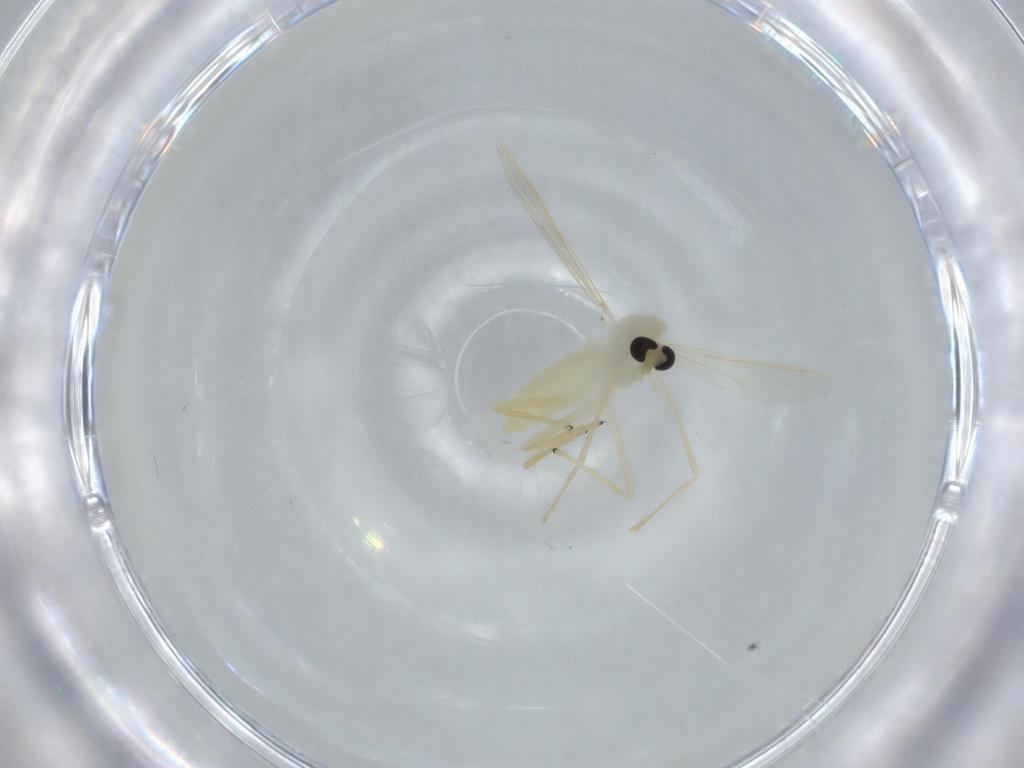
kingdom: Animalia
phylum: Arthropoda
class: Insecta
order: Diptera
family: Chironomidae
